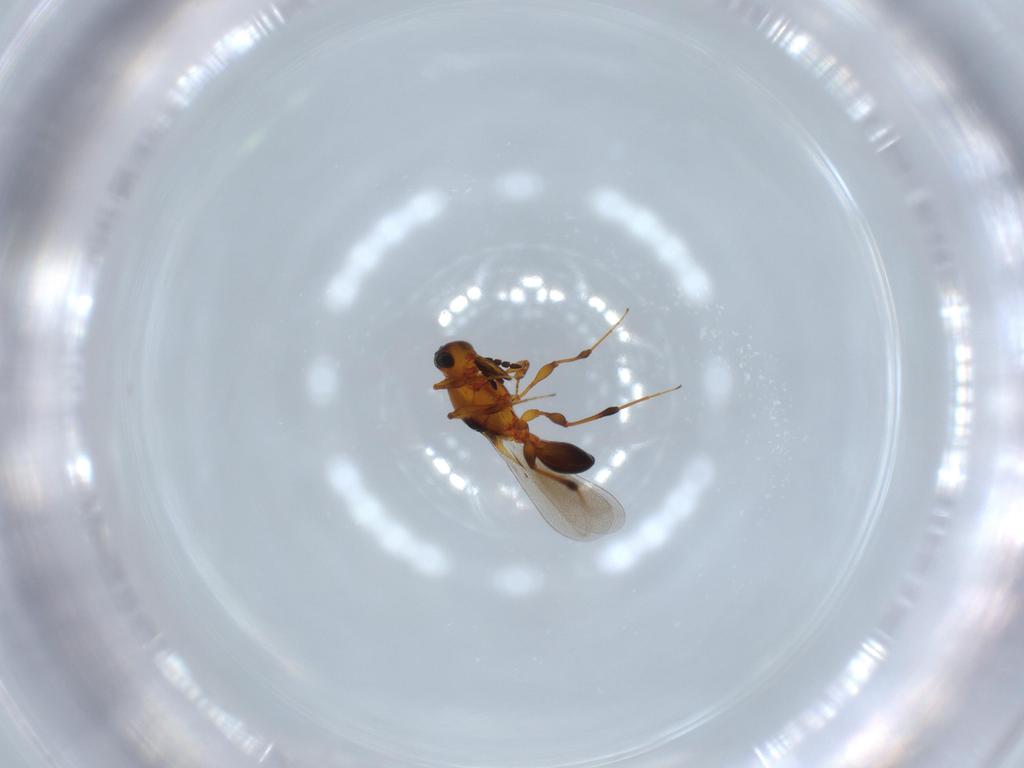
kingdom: Animalia
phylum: Arthropoda
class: Insecta
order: Hymenoptera
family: Platygastridae
